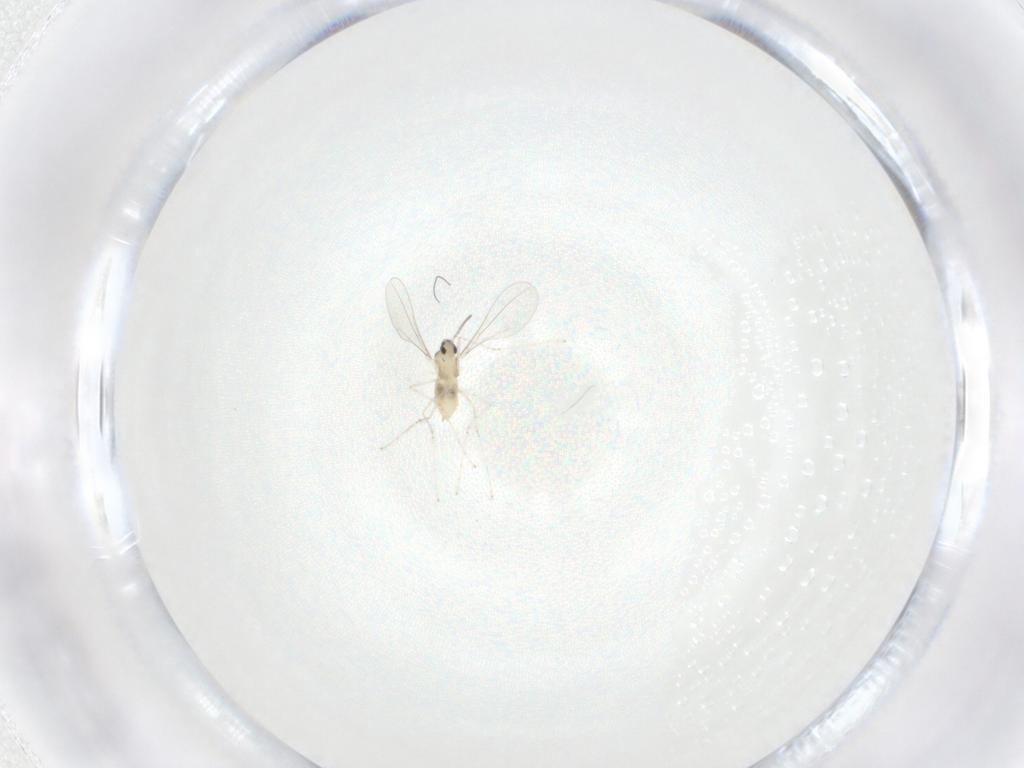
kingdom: Animalia
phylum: Arthropoda
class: Insecta
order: Diptera
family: Cecidomyiidae
